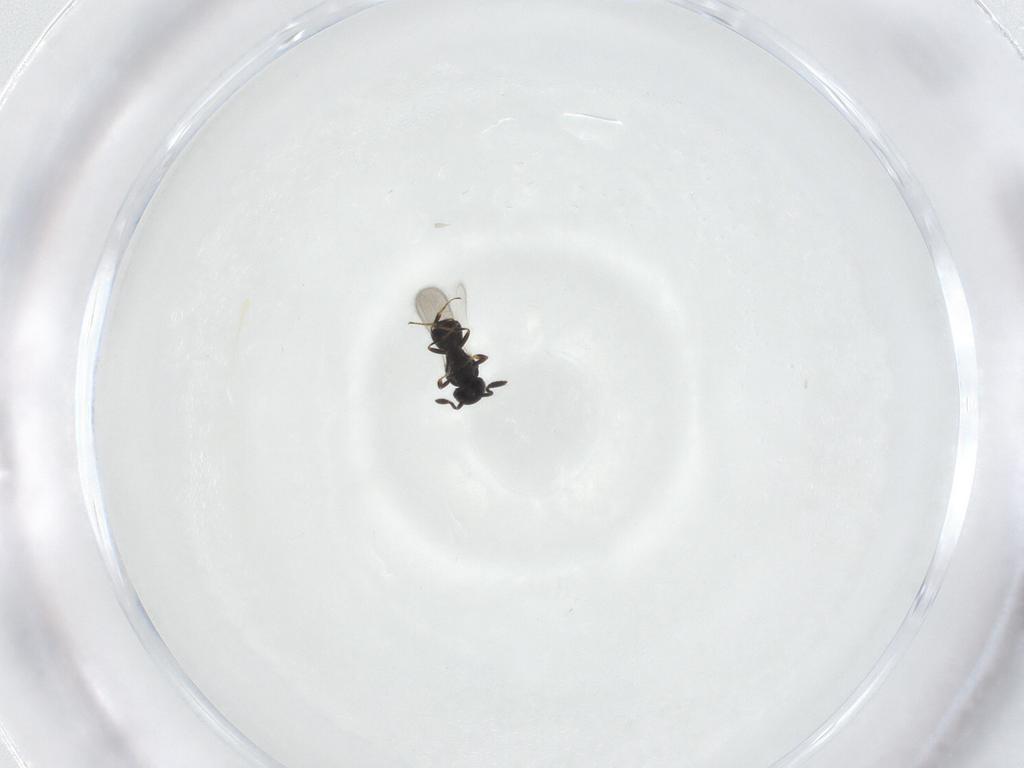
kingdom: Animalia
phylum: Arthropoda
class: Insecta
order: Hymenoptera
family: Scelionidae
